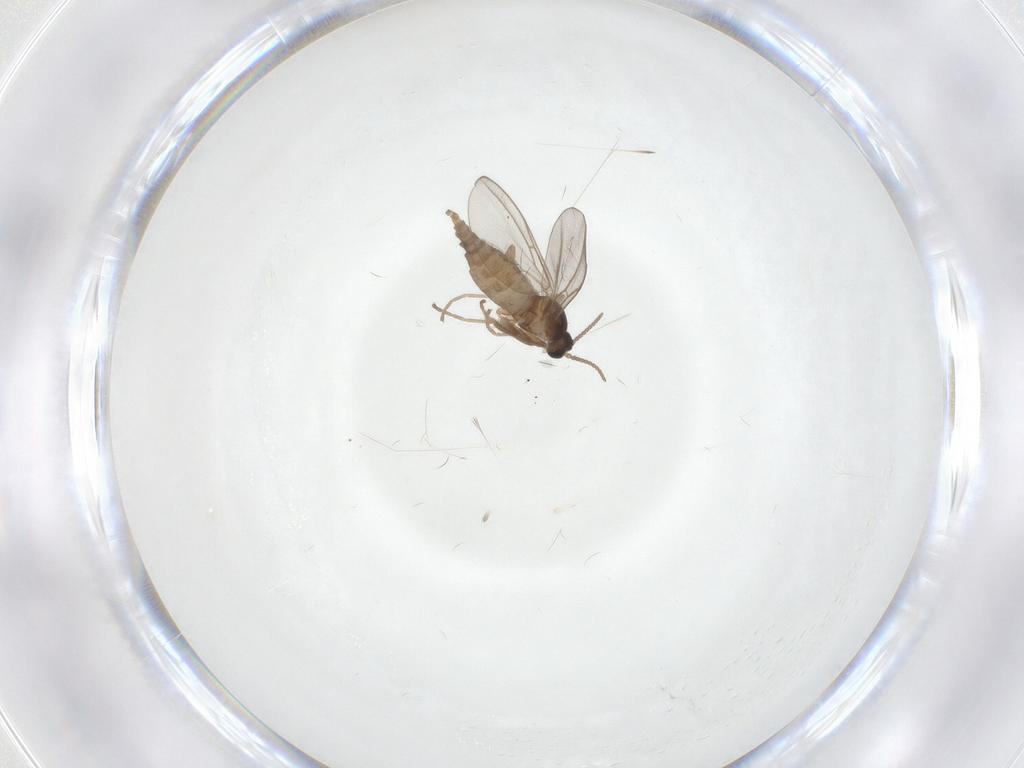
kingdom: Animalia
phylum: Arthropoda
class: Insecta
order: Diptera
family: Cecidomyiidae
